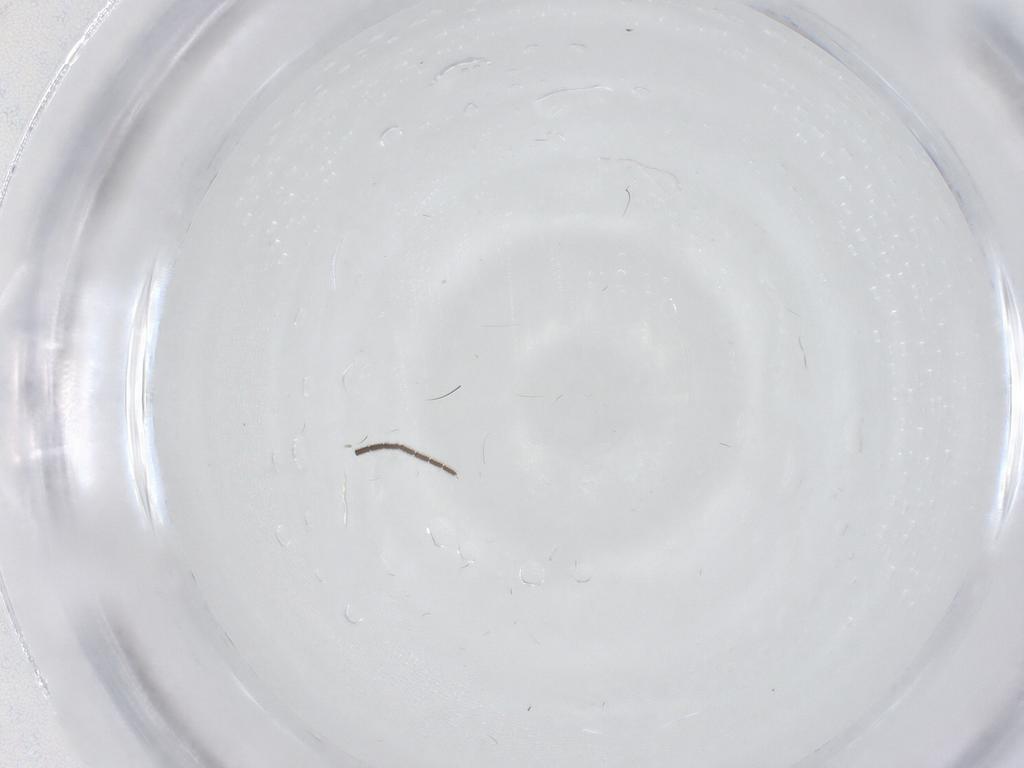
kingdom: Animalia
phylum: Arthropoda
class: Insecta
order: Diptera
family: Cecidomyiidae
